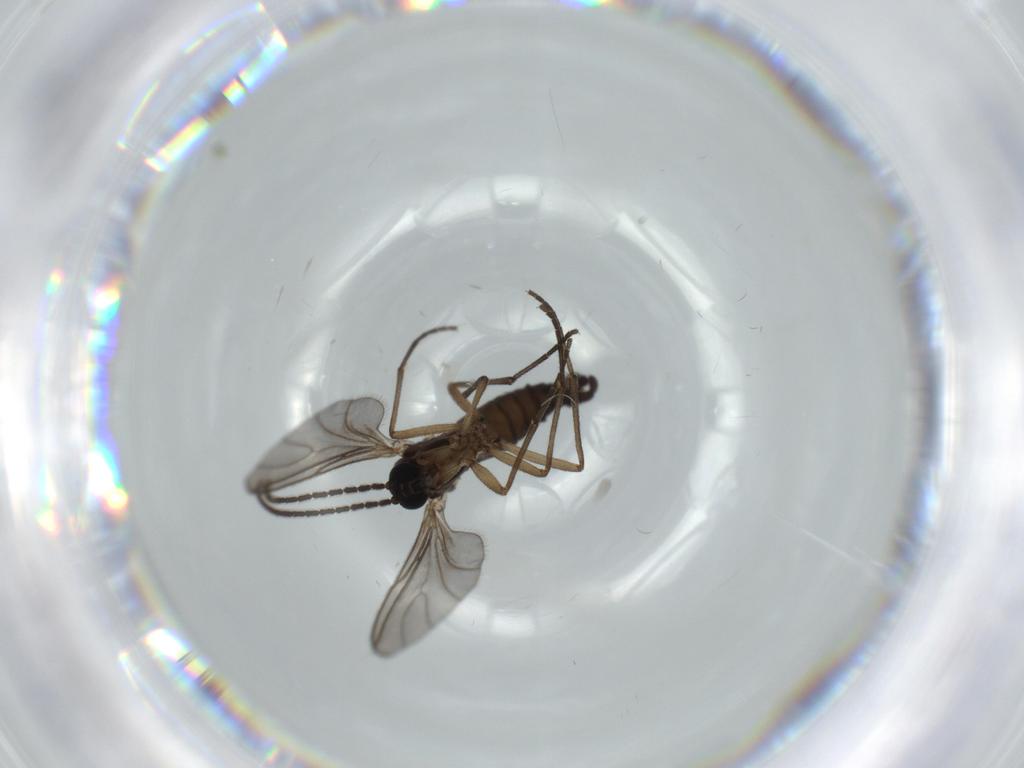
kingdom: Animalia
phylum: Arthropoda
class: Insecta
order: Diptera
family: Sciaridae
